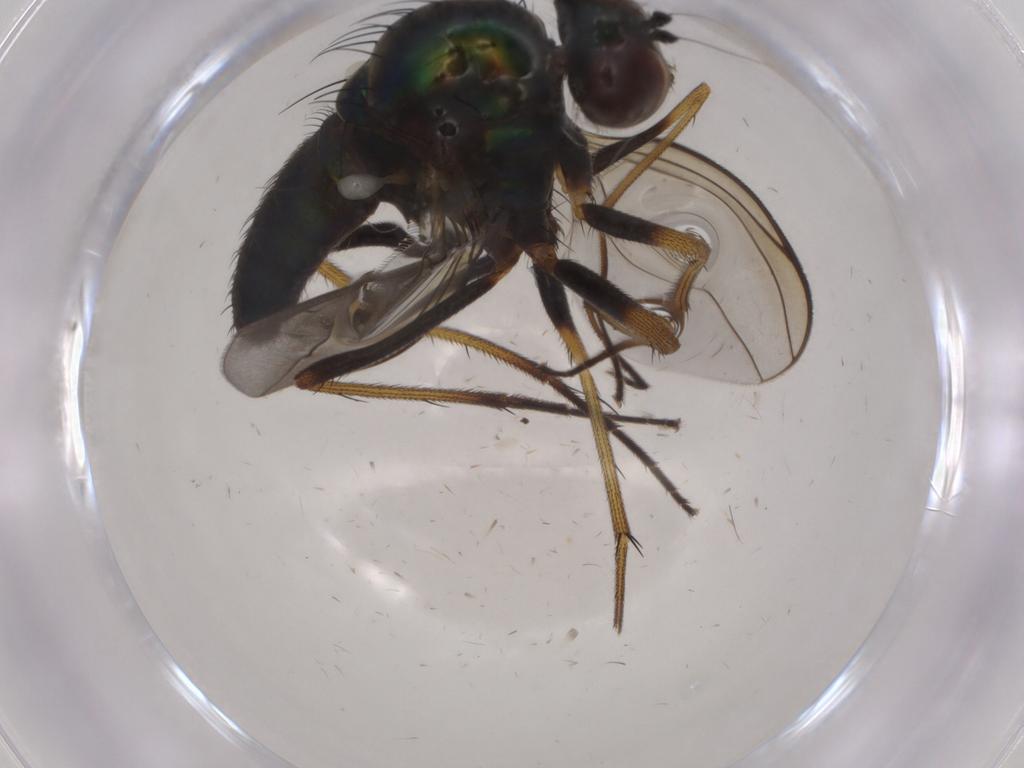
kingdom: Animalia
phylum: Arthropoda
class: Insecta
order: Diptera
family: Dolichopodidae
